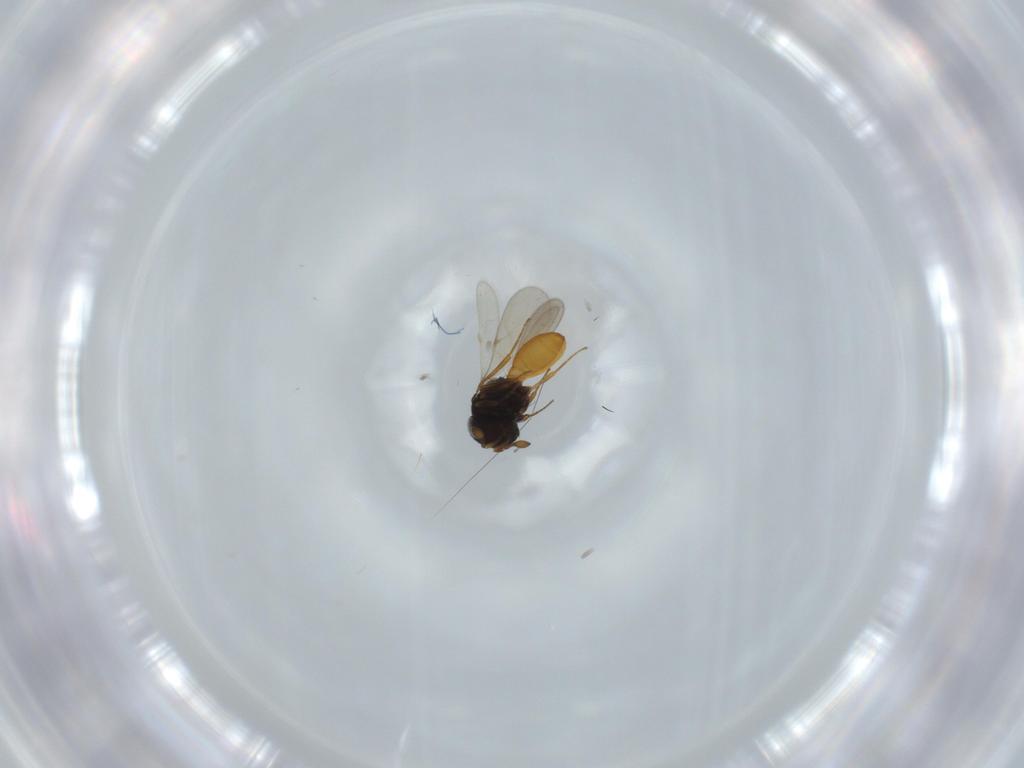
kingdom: Animalia
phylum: Arthropoda
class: Insecta
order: Hymenoptera
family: Scelionidae
